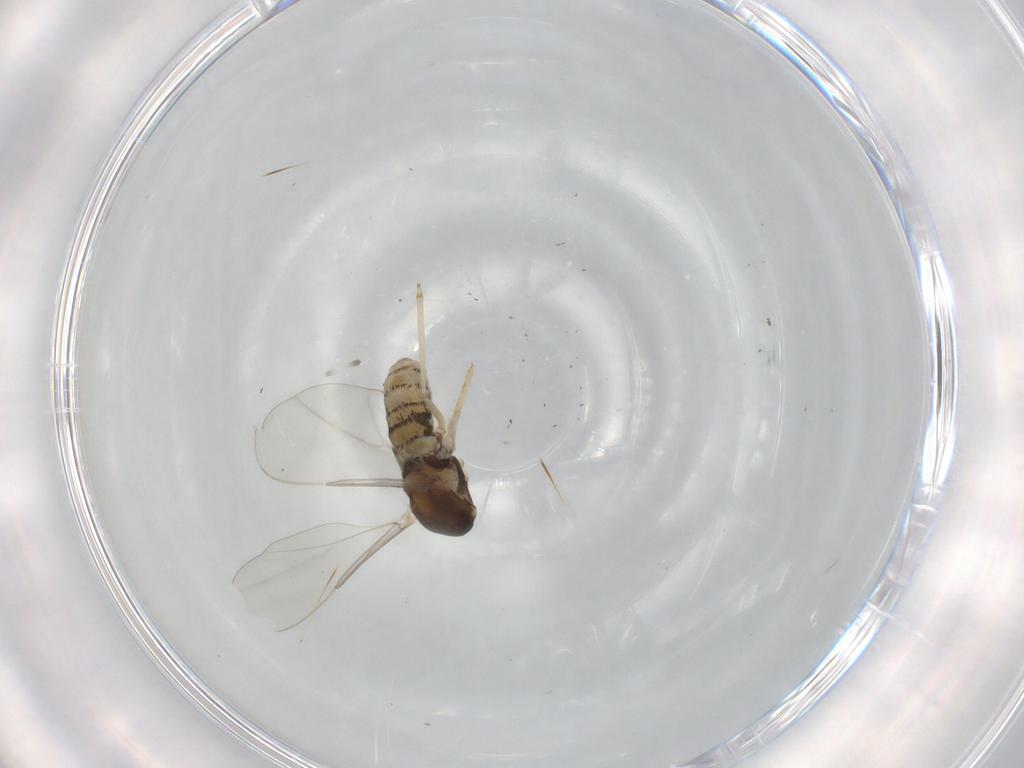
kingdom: Animalia
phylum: Arthropoda
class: Insecta
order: Diptera
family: Cecidomyiidae
